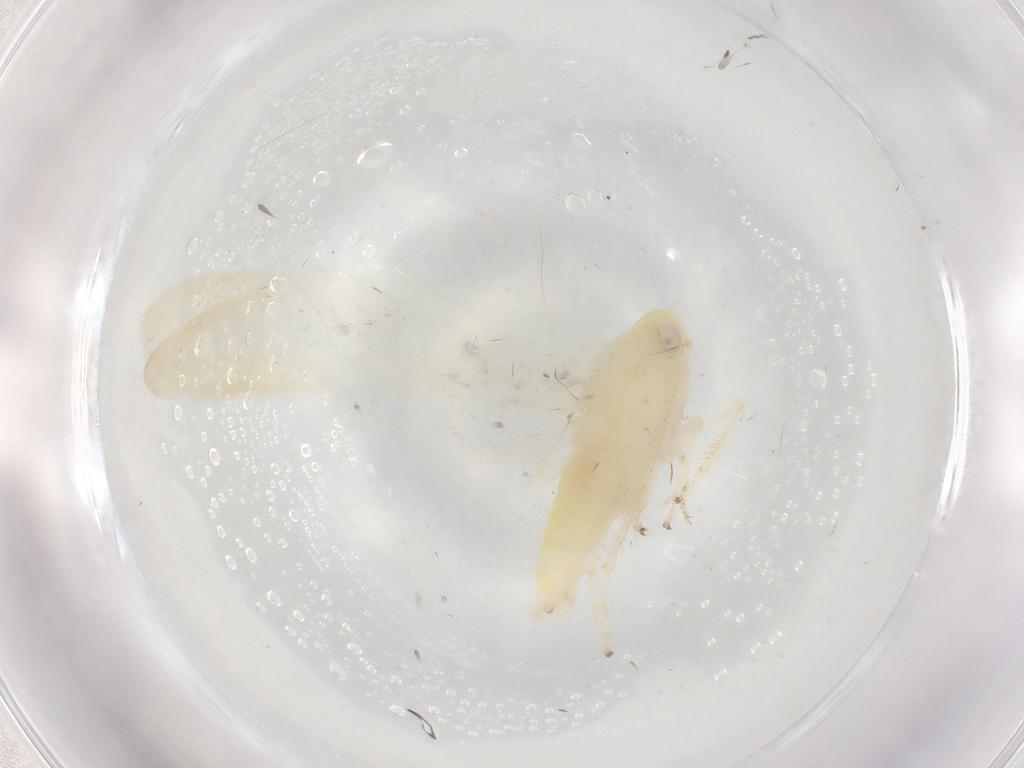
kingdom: Animalia
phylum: Arthropoda
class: Insecta
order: Hemiptera
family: Cicadellidae
